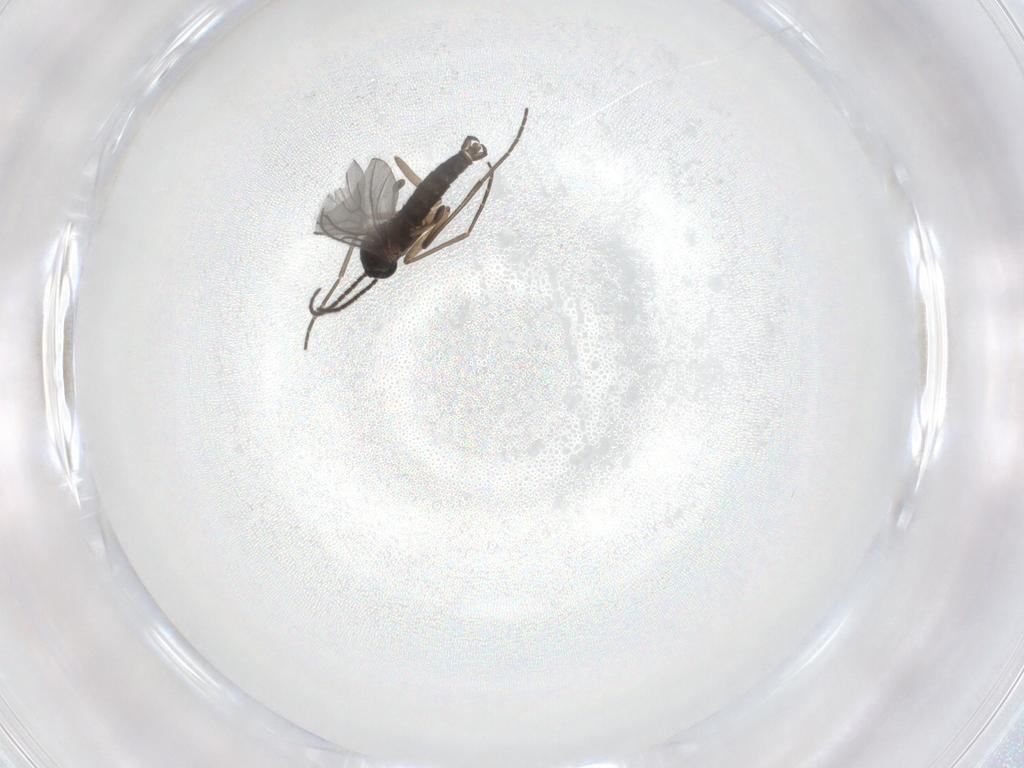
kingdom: Animalia
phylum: Arthropoda
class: Insecta
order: Diptera
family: Sciaridae
